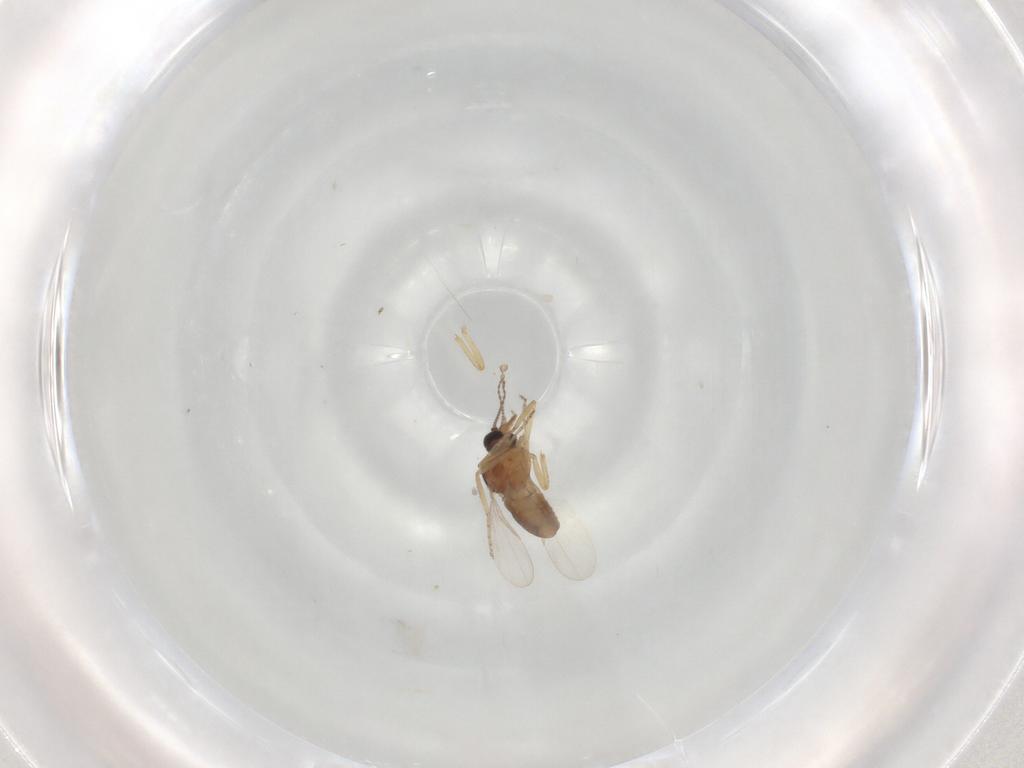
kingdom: Animalia
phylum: Arthropoda
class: Insecta
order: Diptera
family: Ceratopogonidae
